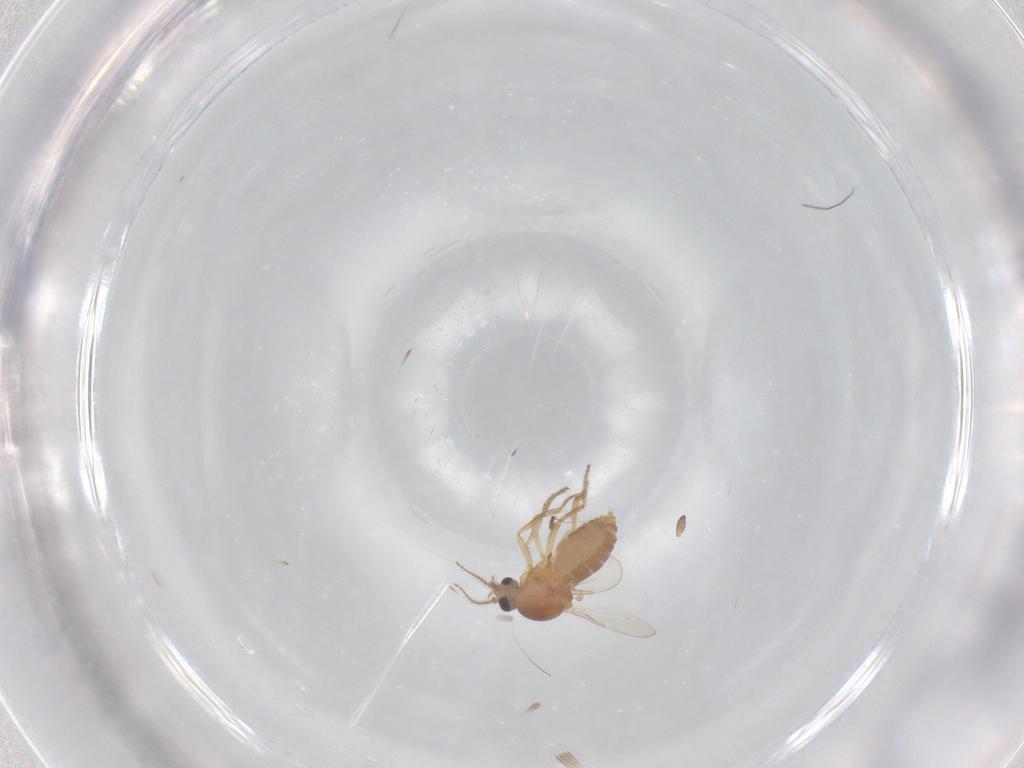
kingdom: Animalia
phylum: Arthropoda
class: Insecta
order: Diptera
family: Ceratopogonidae
